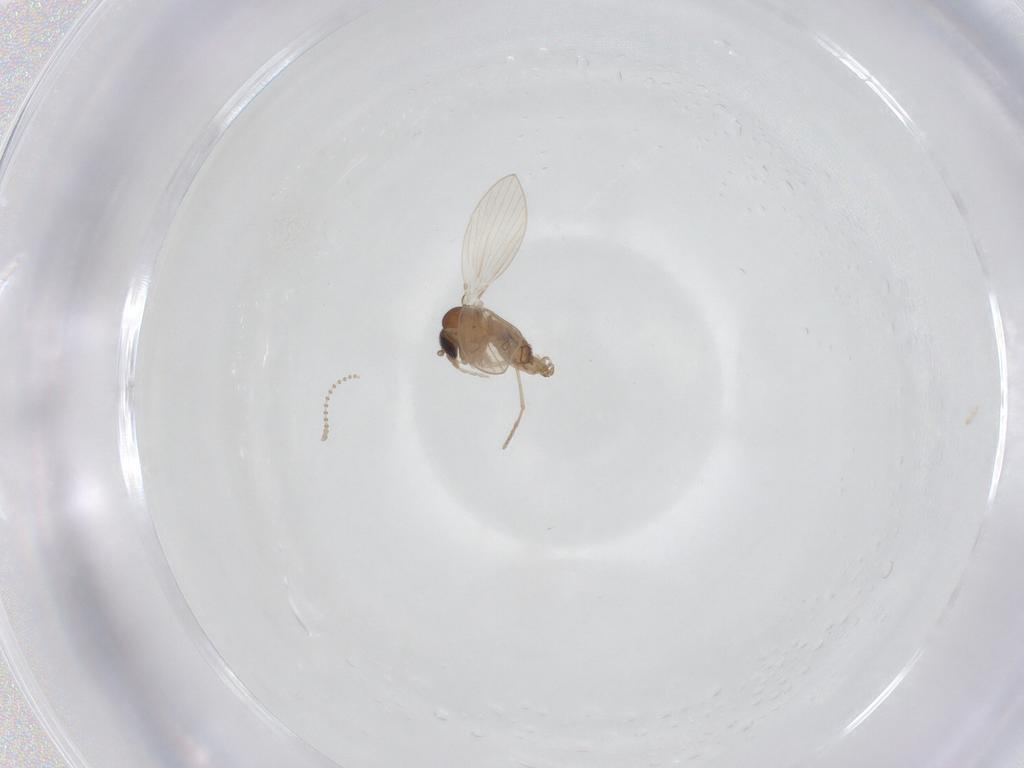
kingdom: Animalia
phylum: Arthropoda
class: Insecta
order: Diptera
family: Psychodidae
